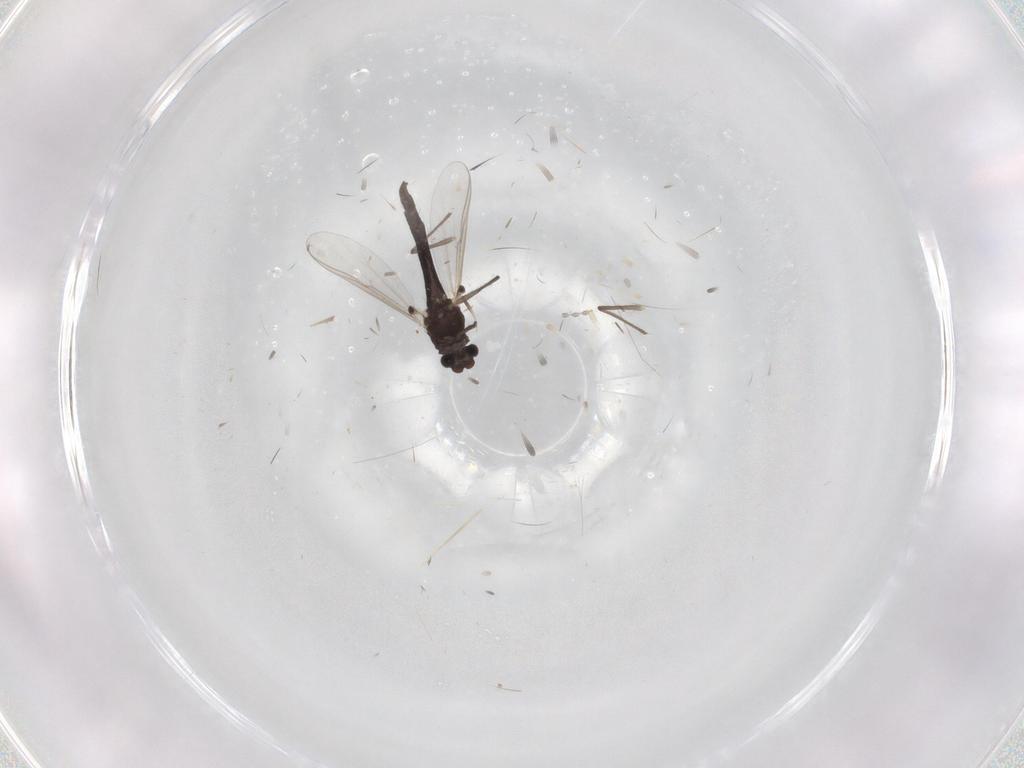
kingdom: Animalia
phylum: Arthropoda
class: Insecta
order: Diptera
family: Chironomidae
